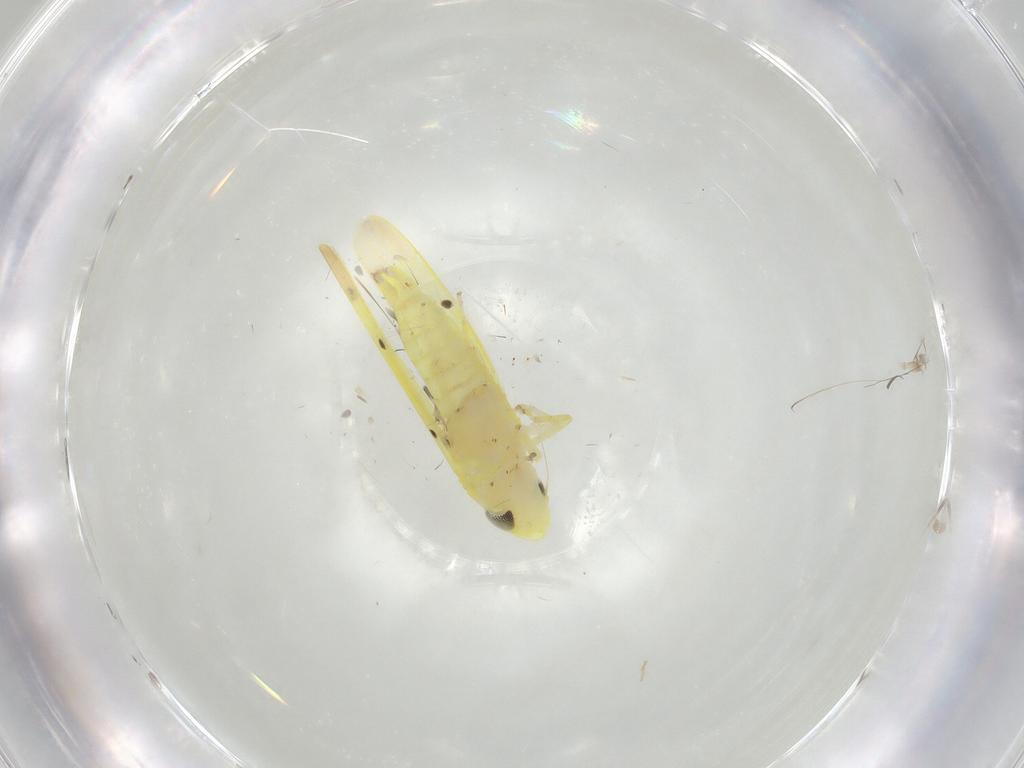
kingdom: Animalia
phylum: Arthropoda
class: Insecta
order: Hemiptera
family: Cicadellidae
